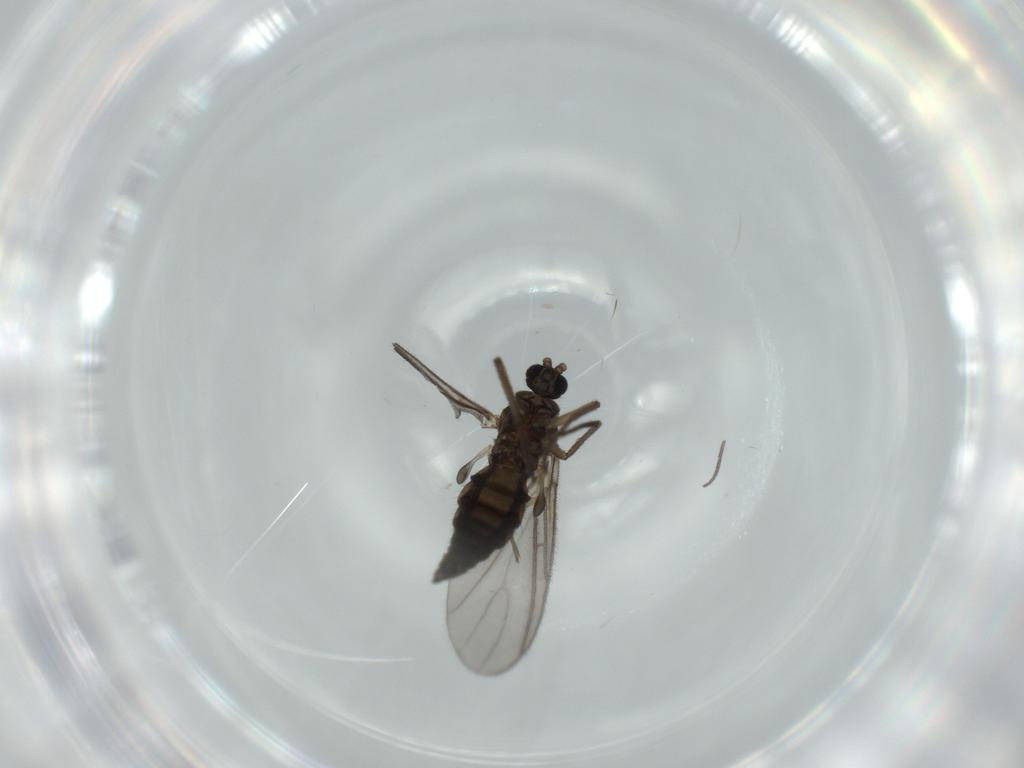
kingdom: Animalia
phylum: Arthropoda
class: Insecta
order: Diptera
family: Sciaridae
